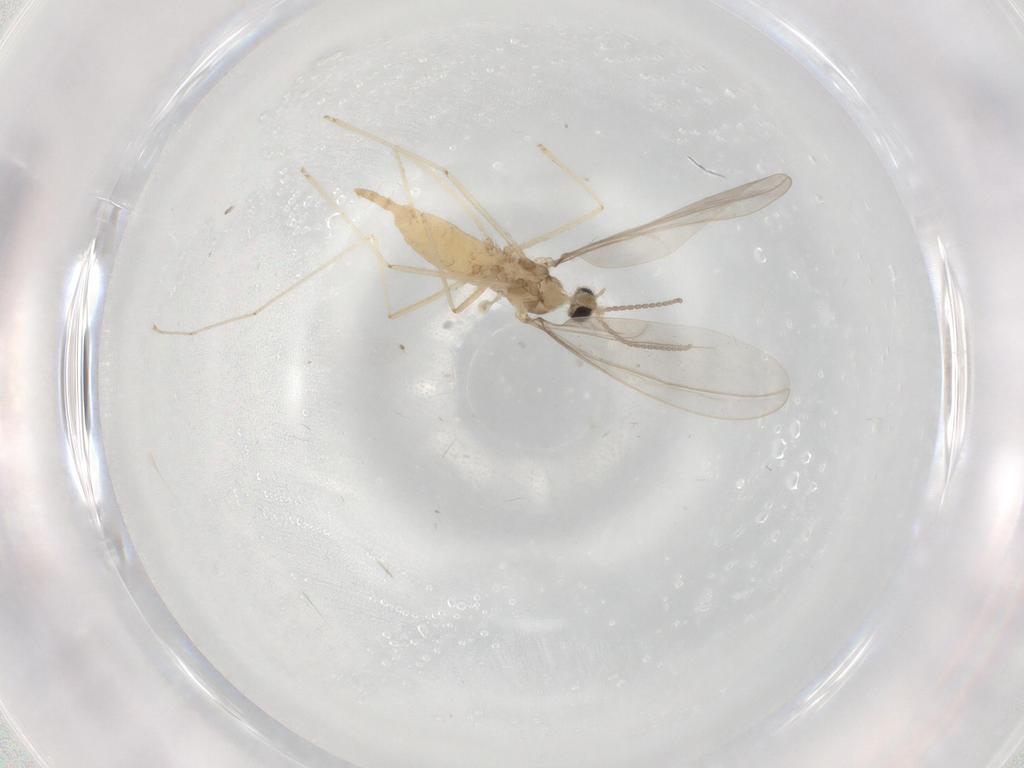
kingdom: Animalia
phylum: Arthropoda
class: Insecta
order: Diptera
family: Cecidomyiidae
